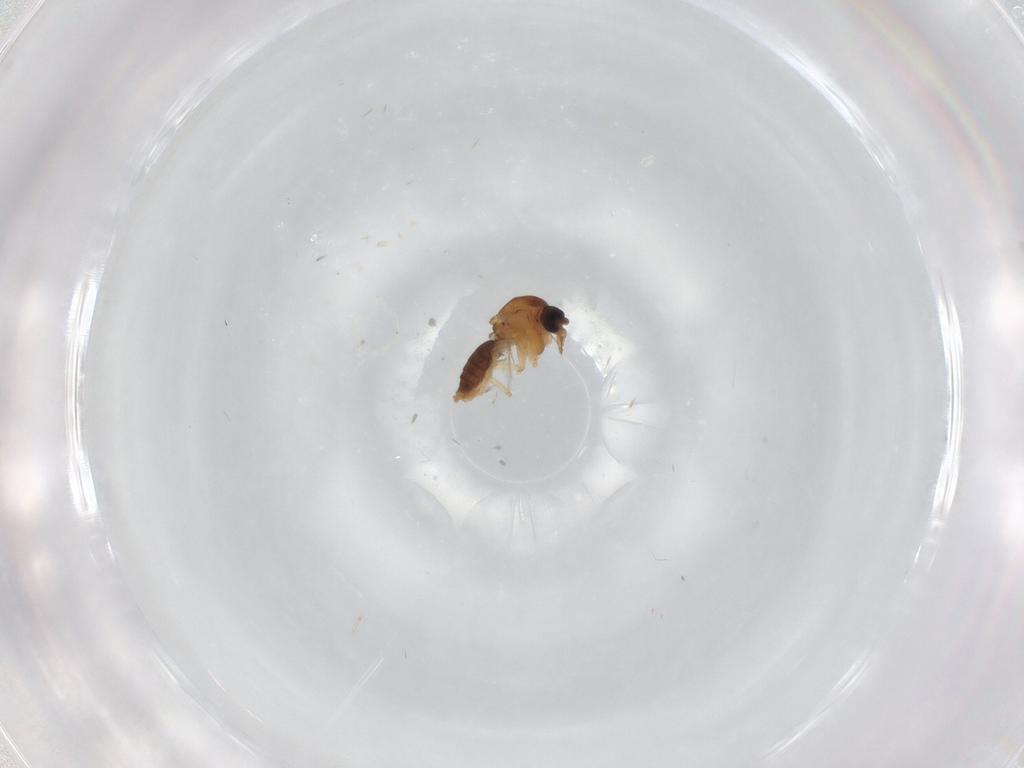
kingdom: Animalia
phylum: Arthropoda
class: Insecta
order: Diptera
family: Ceratopogonidae
